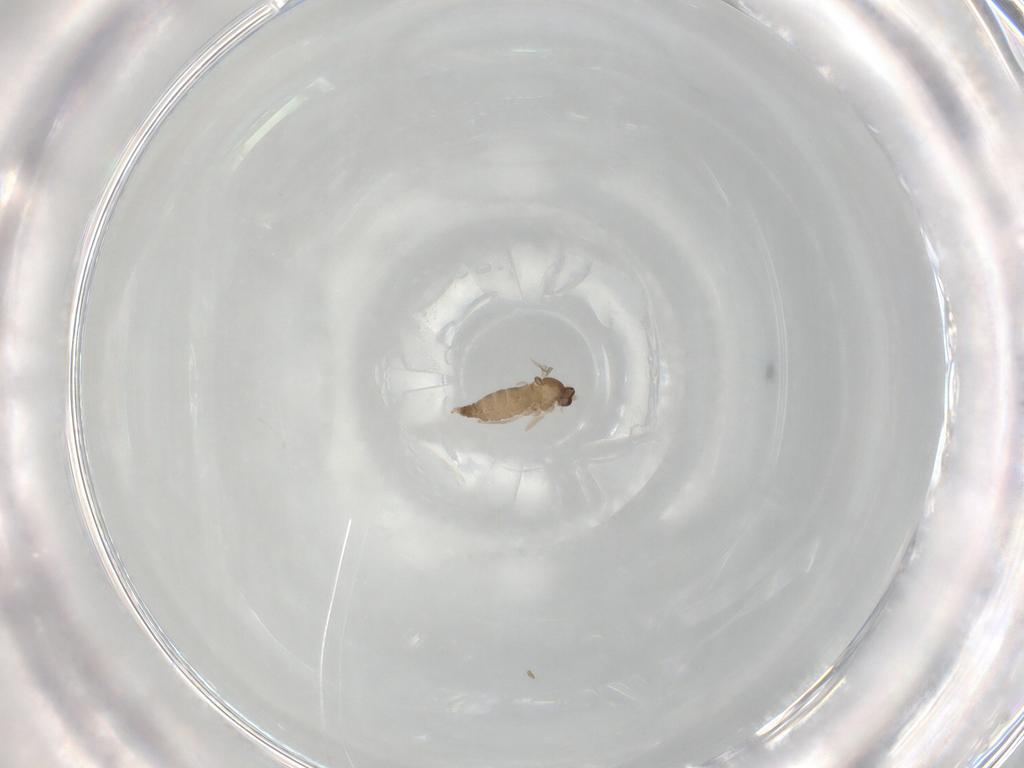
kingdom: Animalia
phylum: Arthropoda
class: Insecta
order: Diptera
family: Cecidomyiidae
